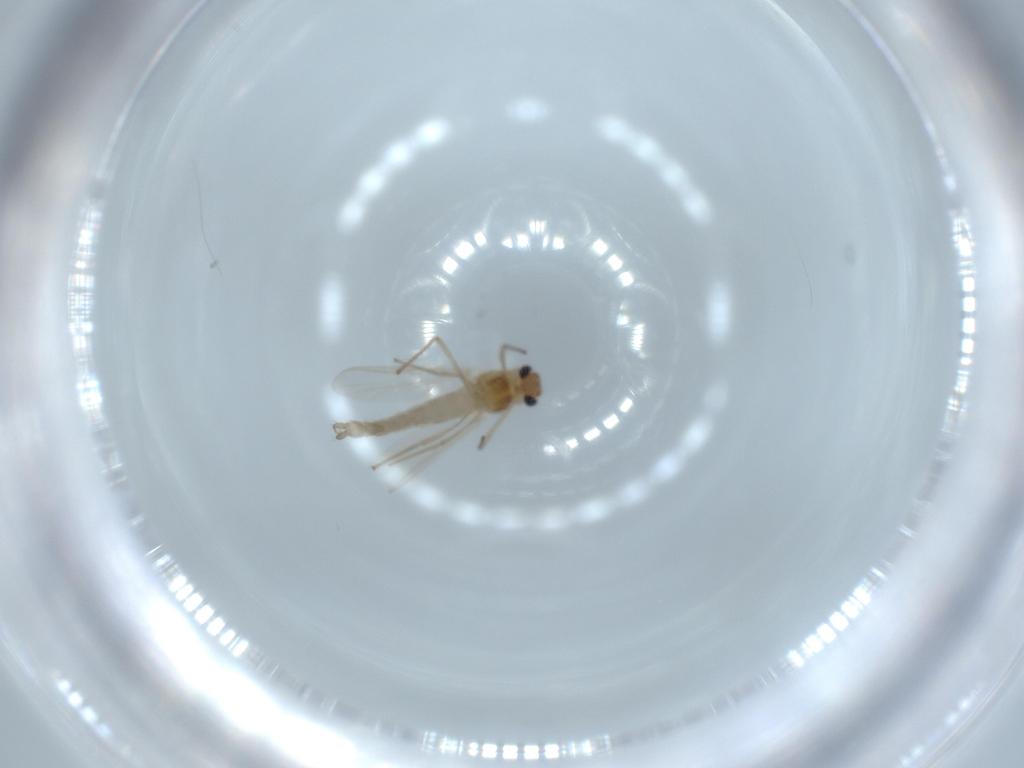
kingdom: Animalia
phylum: Arthropoda
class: Insecta
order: Diptera
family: Chironomidae
